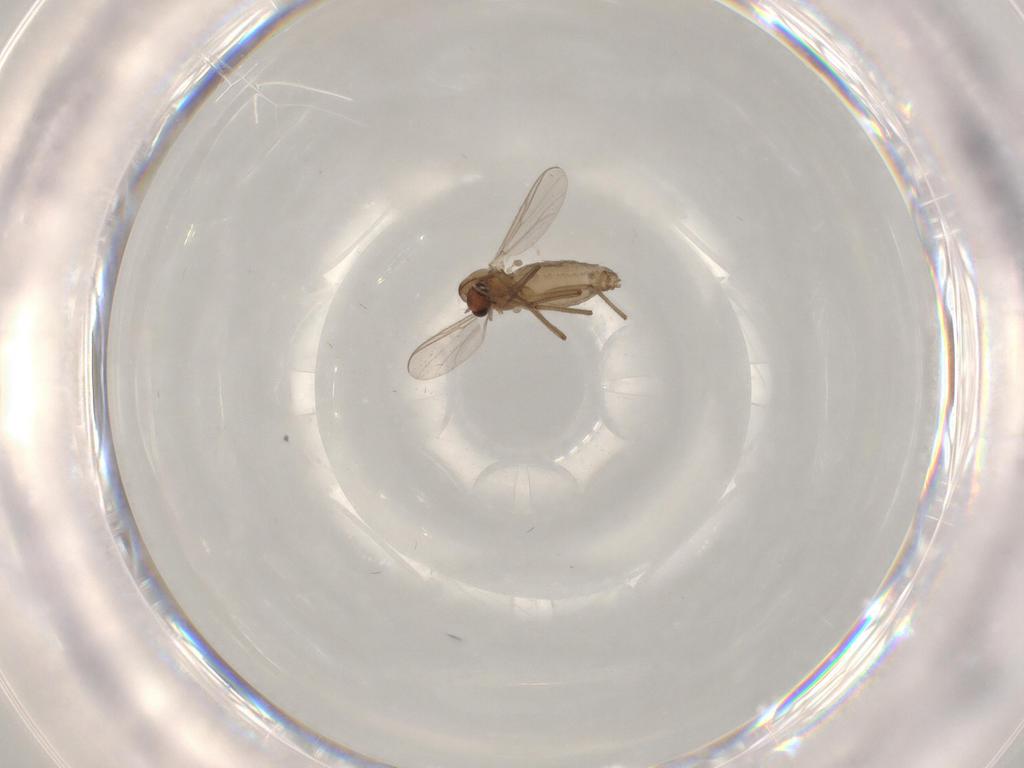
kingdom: Animalia
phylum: Arthropoda
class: Insecta
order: Diptera
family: Chironomidae
